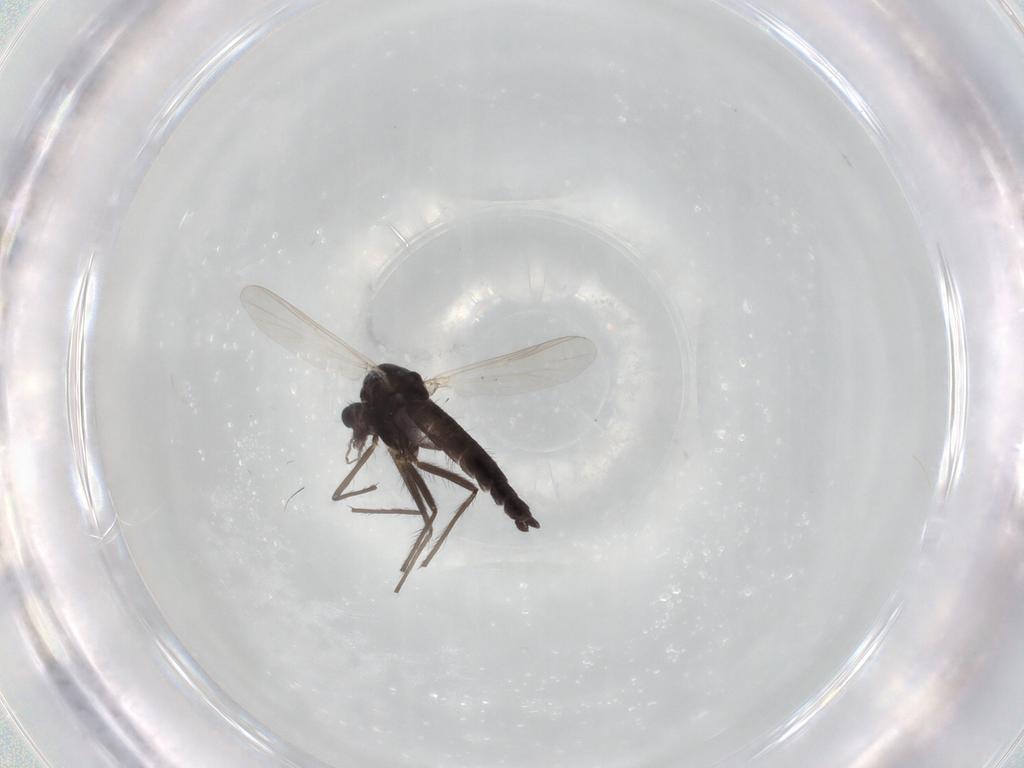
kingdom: Animalia
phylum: Arthropoda
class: Insecta
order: Diptera
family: Chironomidae
